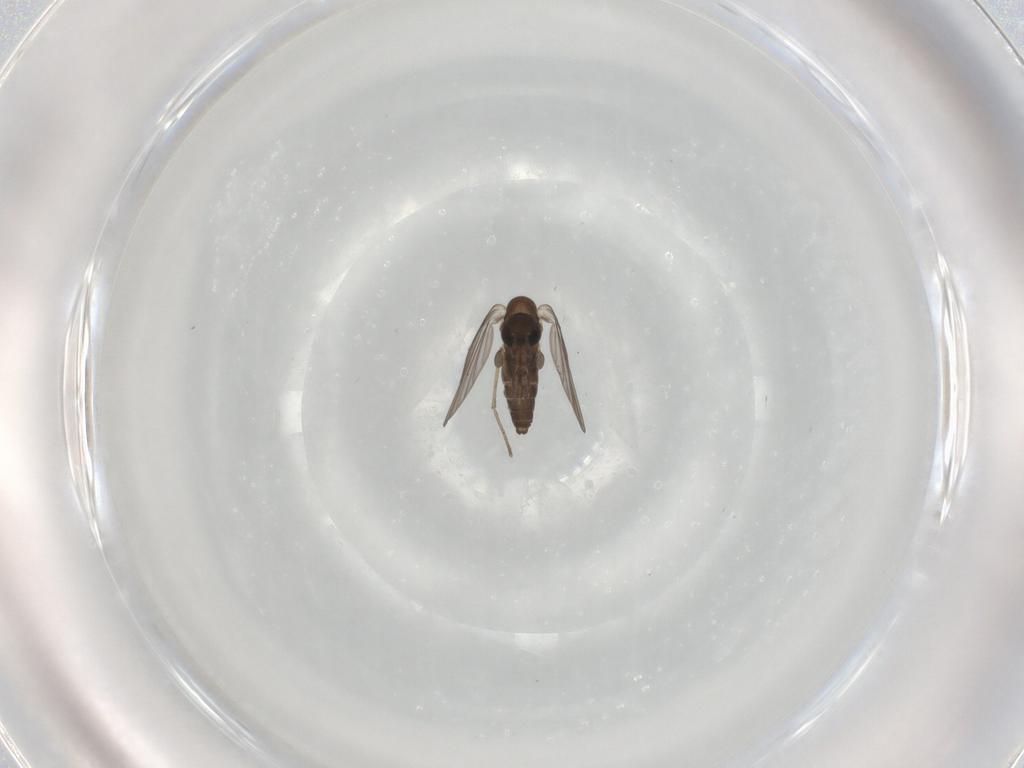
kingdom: Animalia
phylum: Arthropoda
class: Insecta
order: Diptera
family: Psychodidae
